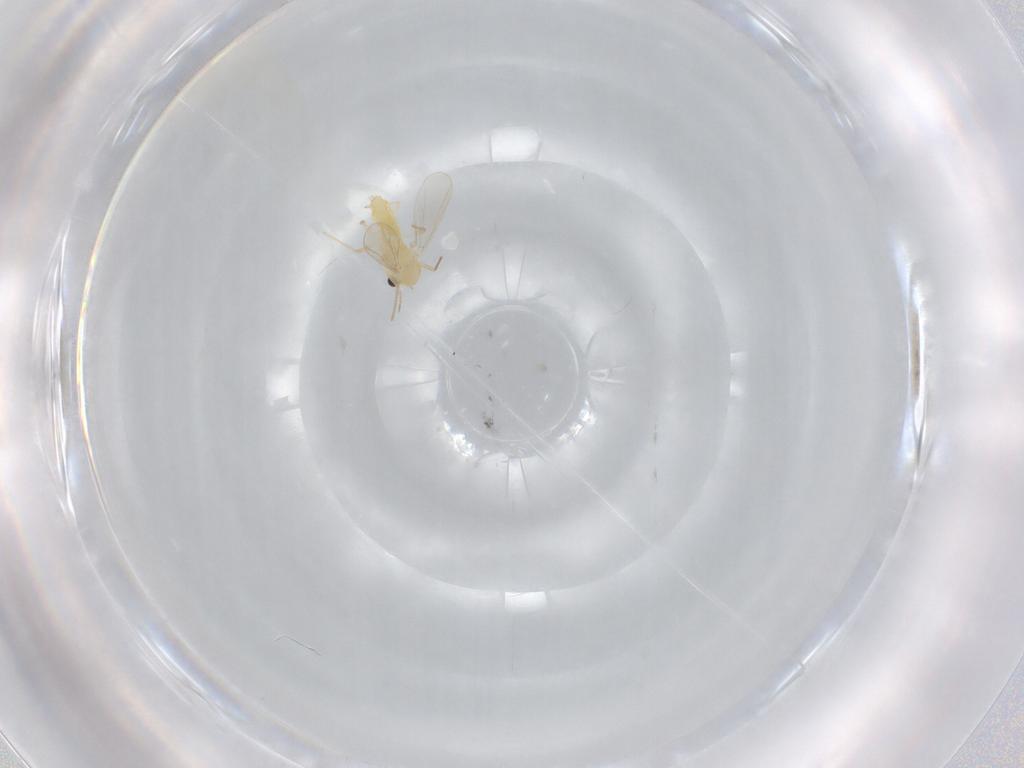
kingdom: Animalia
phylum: Arthropoda
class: Insecta
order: Diptera
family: Chironomidae
